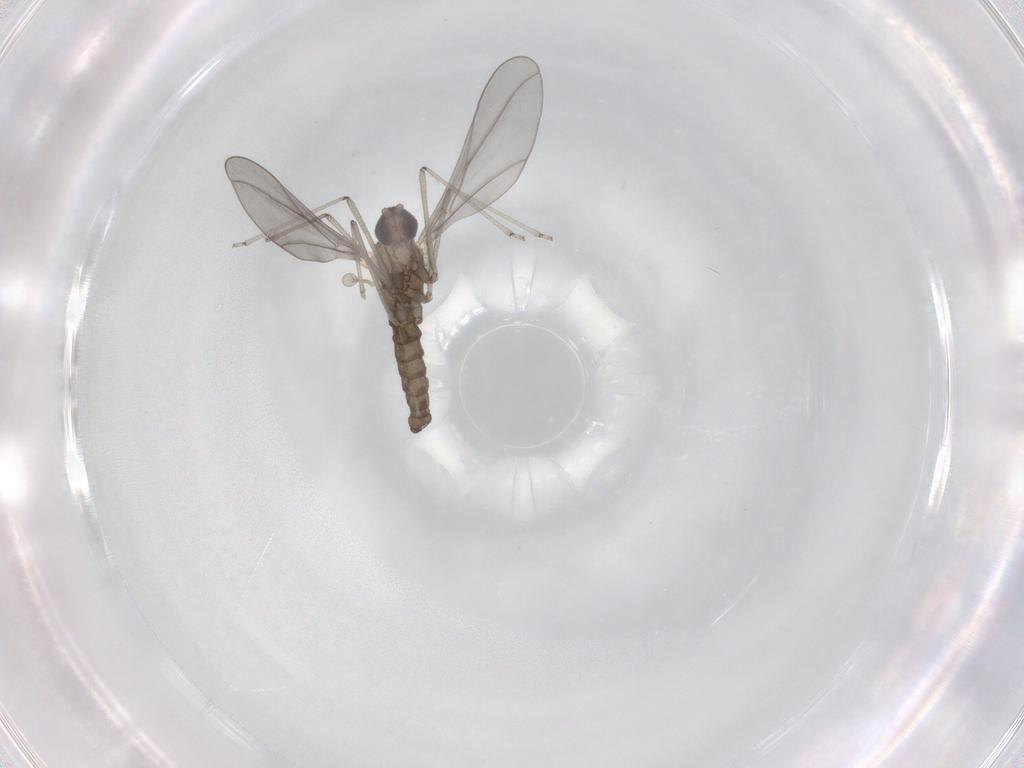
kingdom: Animalia
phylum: Arthropoda
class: Insecta
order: Diptera
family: Cecidomyiidae
